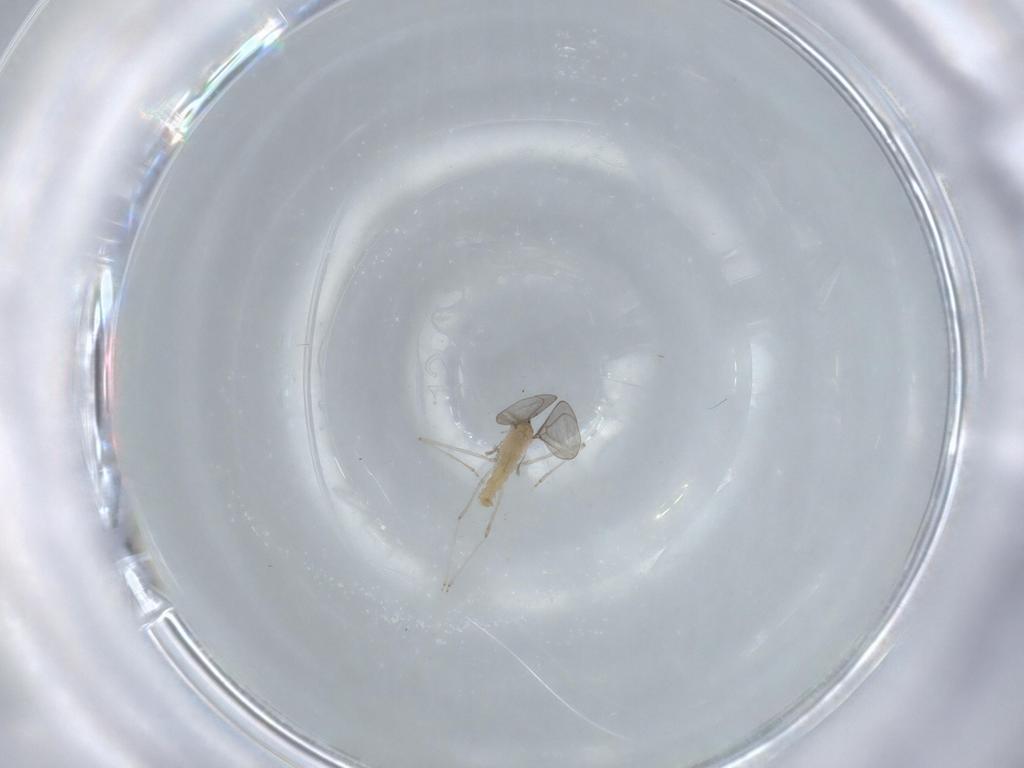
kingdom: Animalia
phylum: Arthropoda
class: Insecta
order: Diptera
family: Cecidomyiidae
